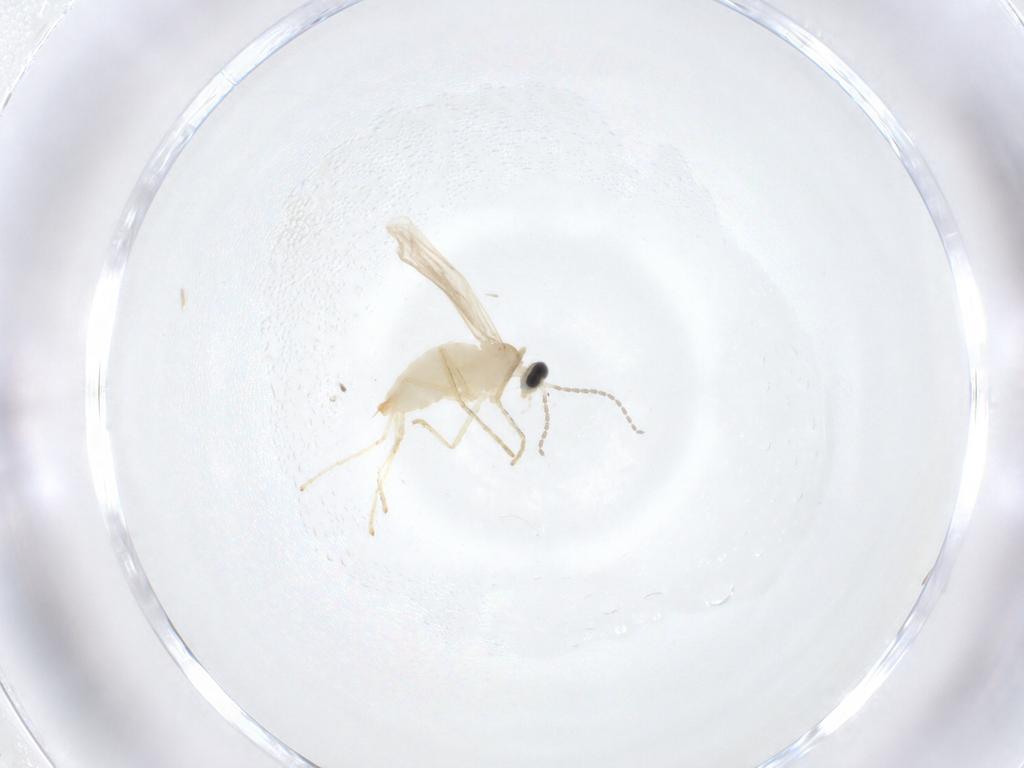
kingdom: Animalia
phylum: Arthropoda
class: Insecta
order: Diptera
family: Cecidomyiidae
